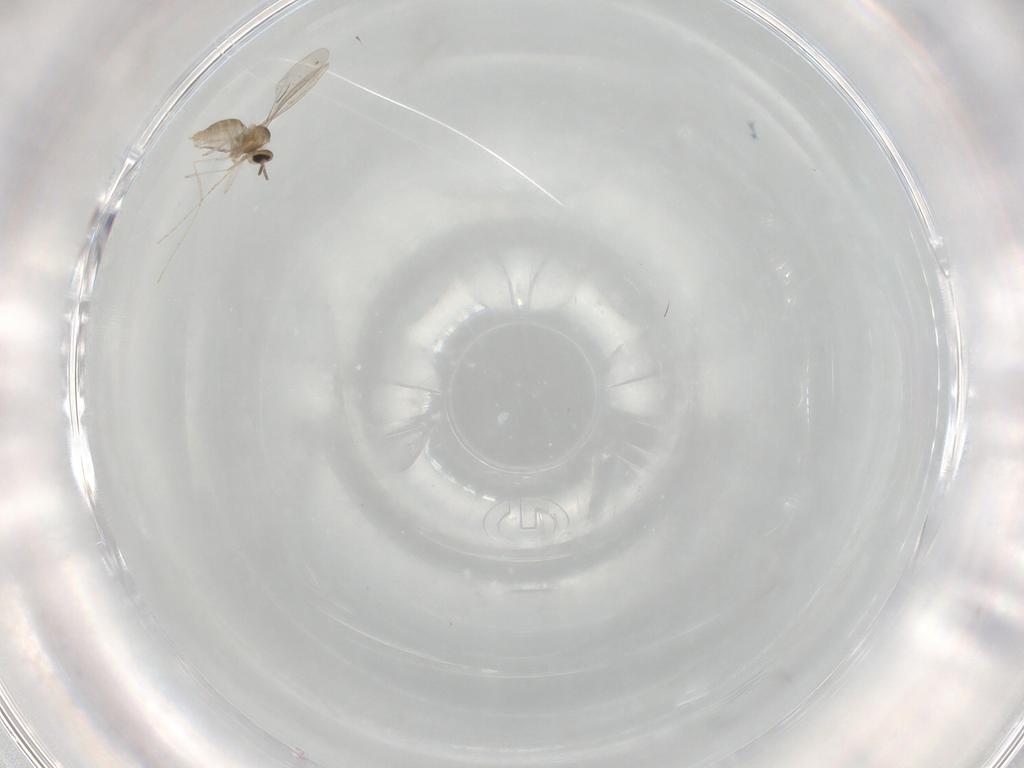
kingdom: Animalia
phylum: Arthropoda
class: Insecta
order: Diptera
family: Cecidomyiidae
